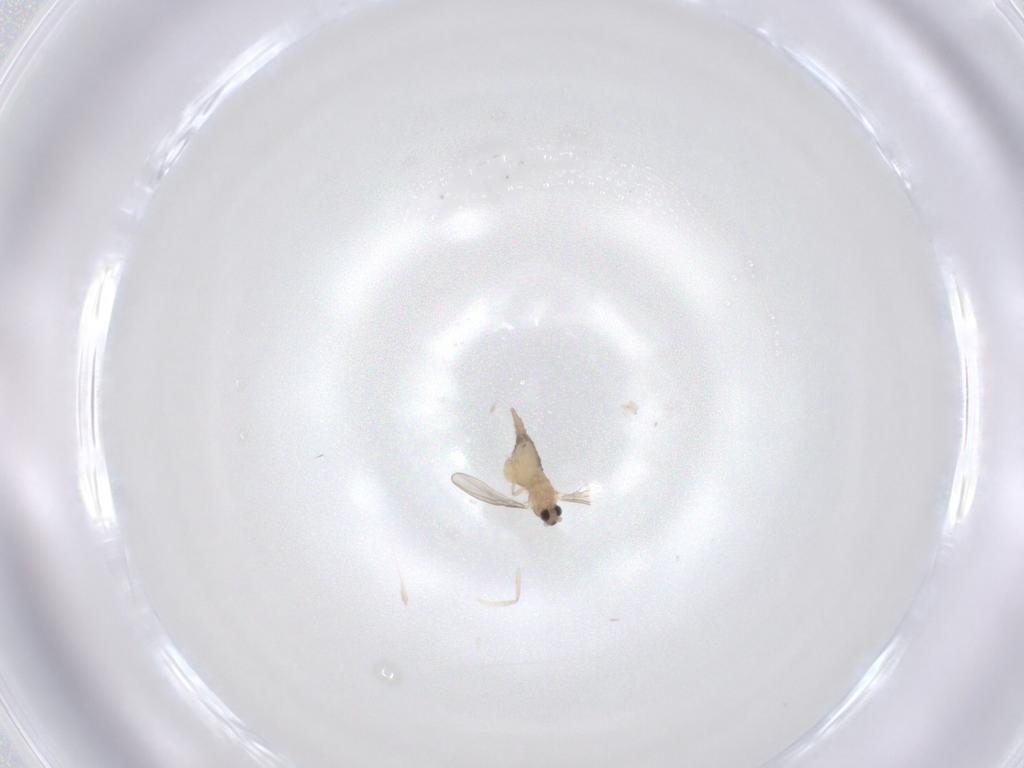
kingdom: Animalia
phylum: Arthropoda
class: Insecta
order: Diptera
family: Cecidomyiidae
